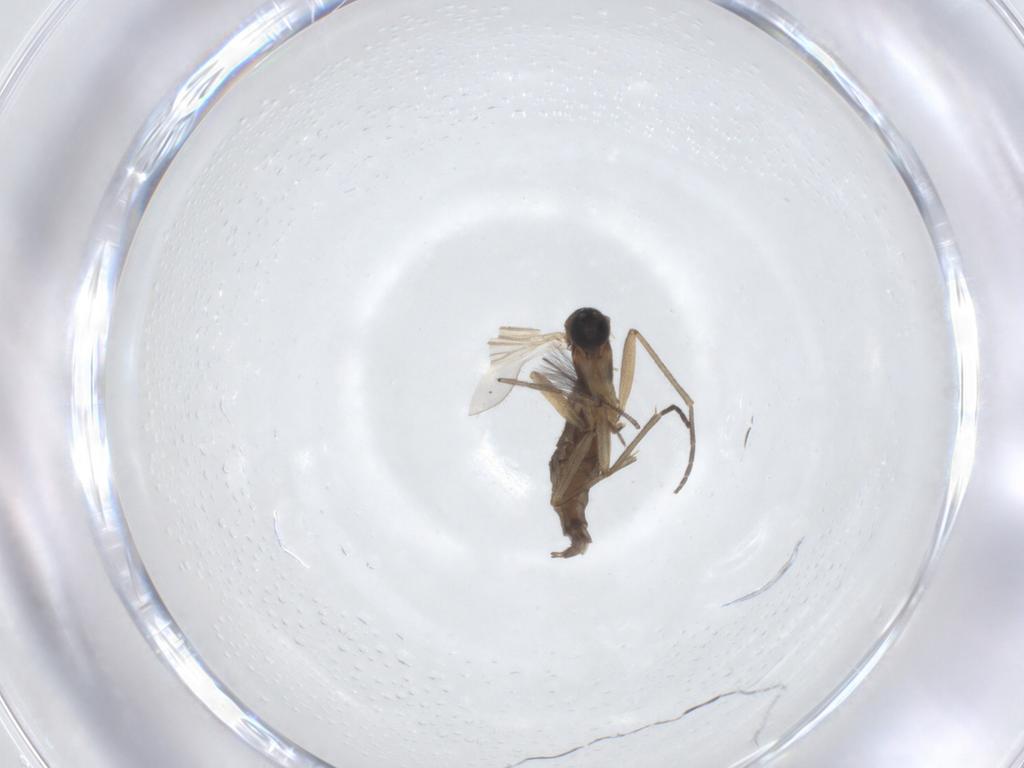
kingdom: Animalia
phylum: Arthropoda
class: Insecta
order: Diptera
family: Sciaridae
